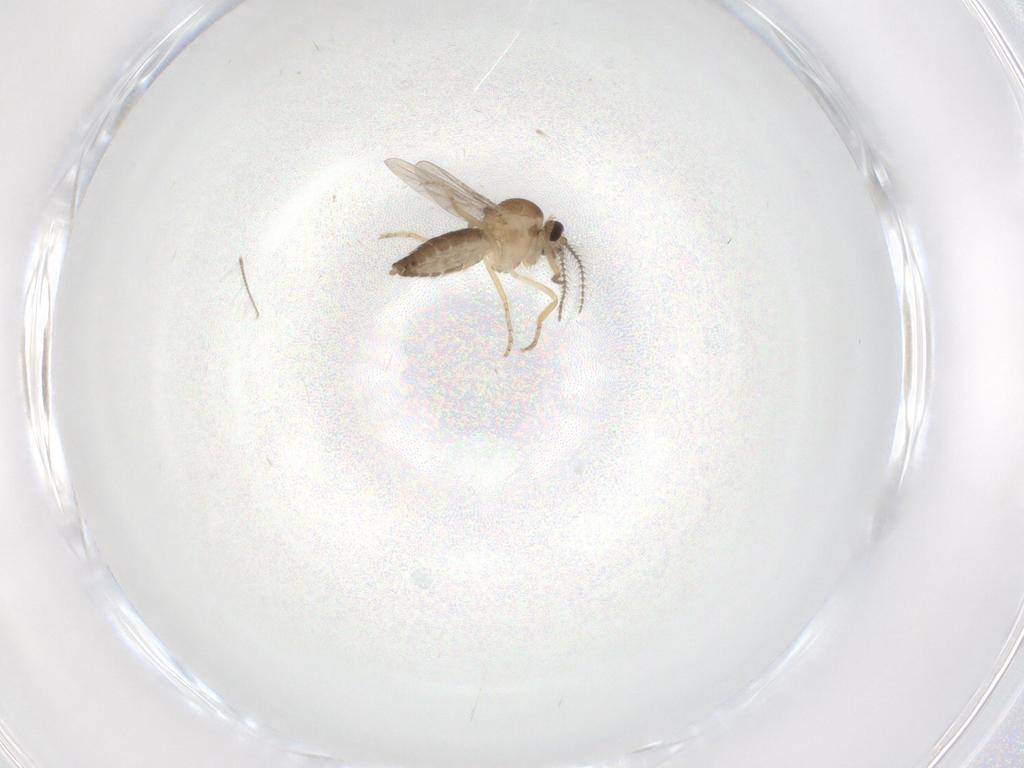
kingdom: Animalia
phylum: Arthropoda
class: Insecta
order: Diptera
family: Ceratopogonidae
